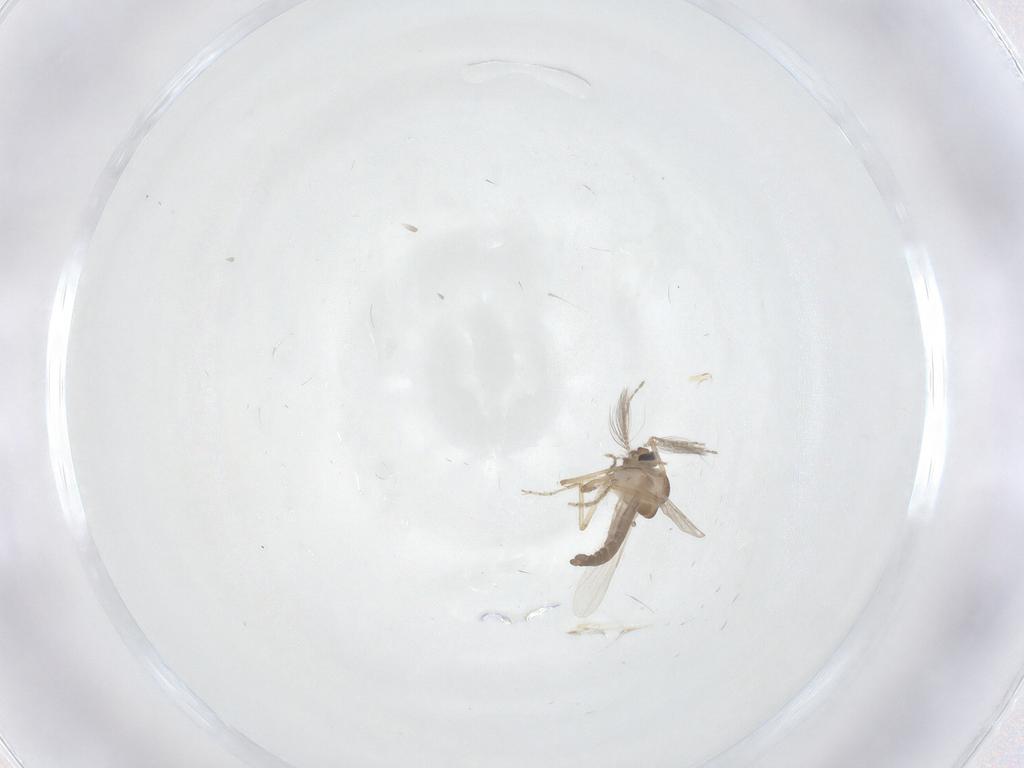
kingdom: Animalia
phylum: Arthropoda
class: Insecta
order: Diptera
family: Ceratopogonidae
